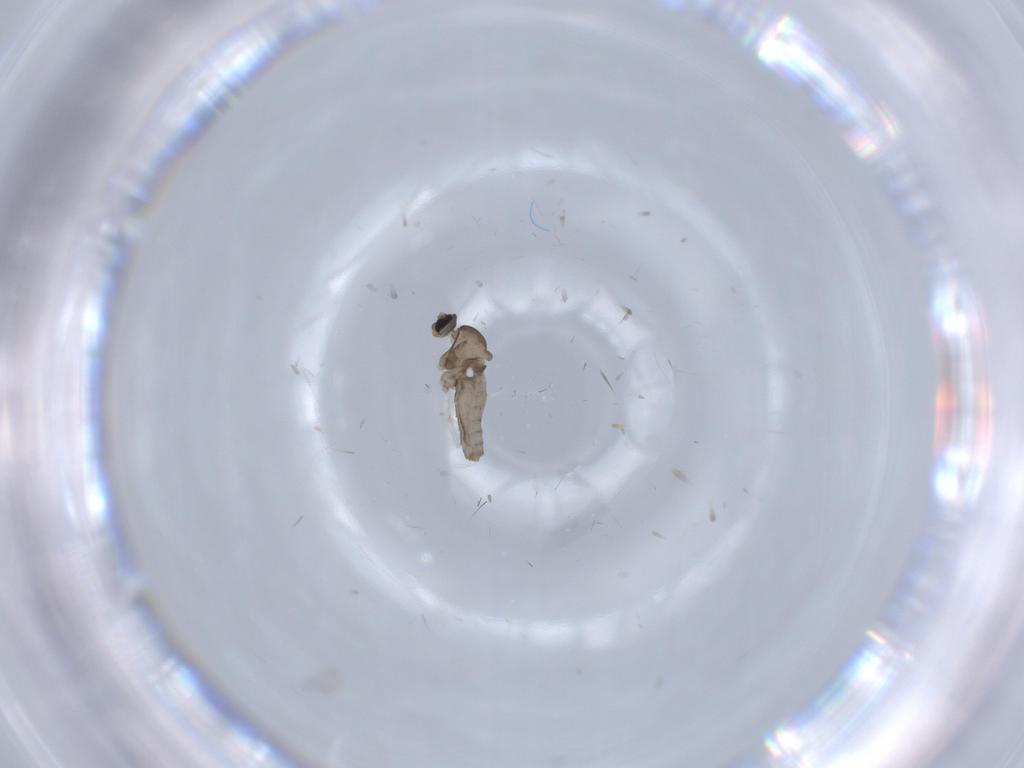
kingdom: Animalia
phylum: Arthropoda
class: Insecta
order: Diptera
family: Cecidomyiidae
